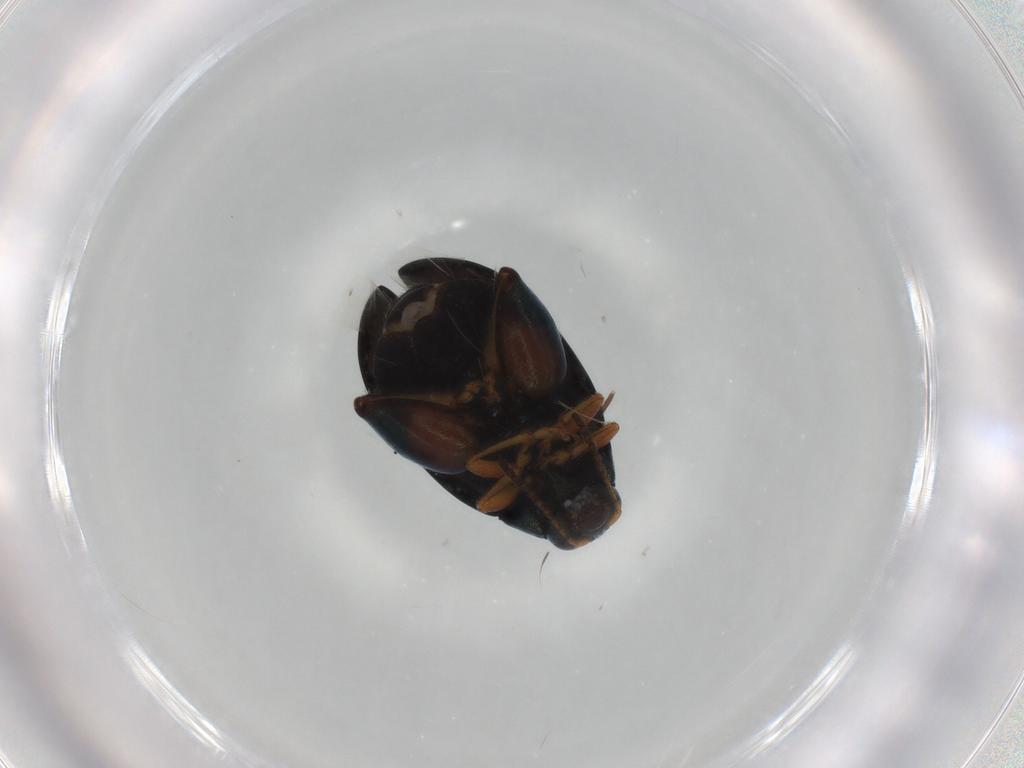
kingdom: Animalia
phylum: Arthropoda
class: Insecta
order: Coleoptera
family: Chrysomelidae
